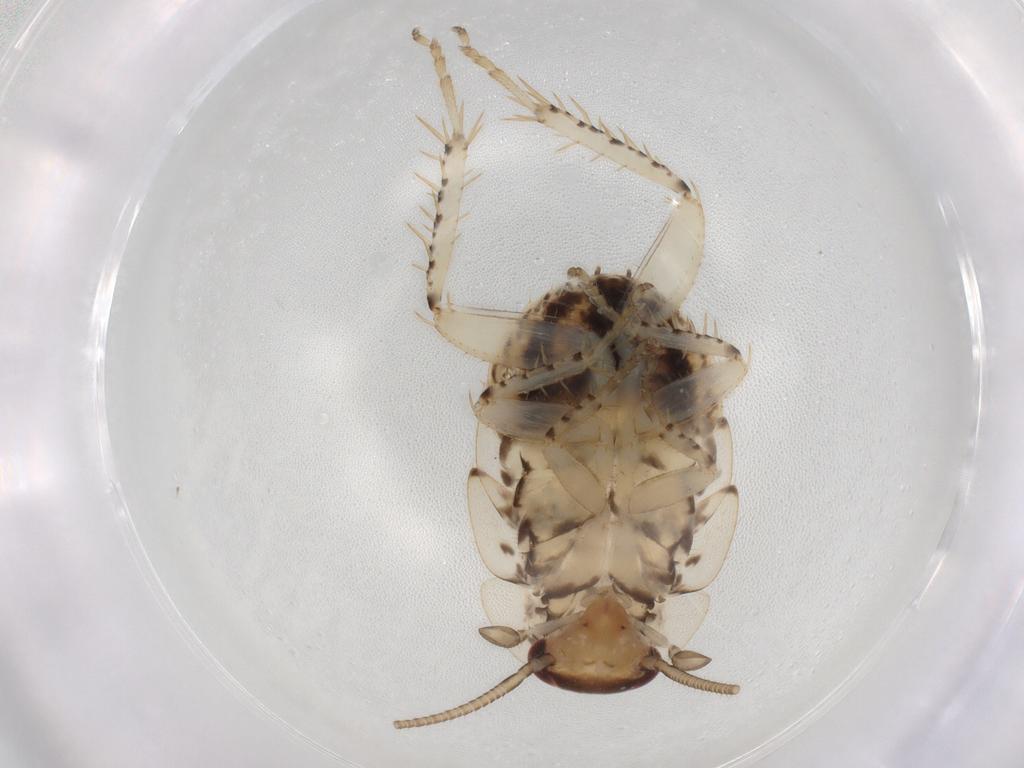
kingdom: Animalia
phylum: Arthropoda
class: Insecta
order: Blattodea
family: Ectobiidae
